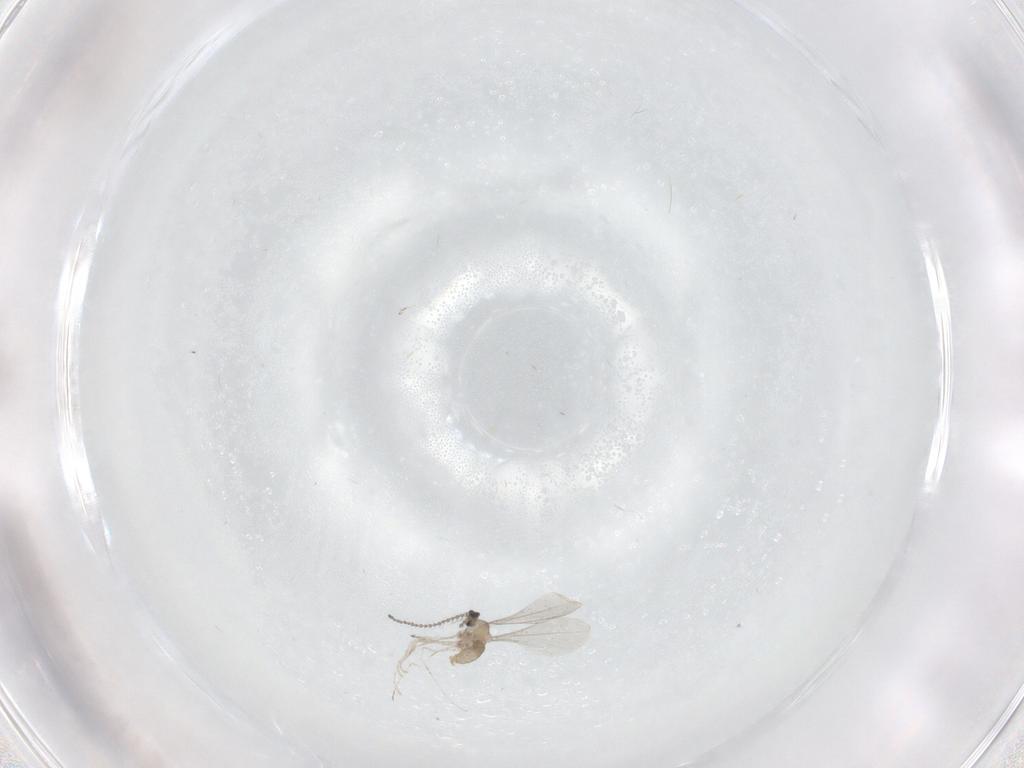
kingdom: Animalia
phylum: Arthropoda
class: Insecta
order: Diptera
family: Cecidomyiidae
